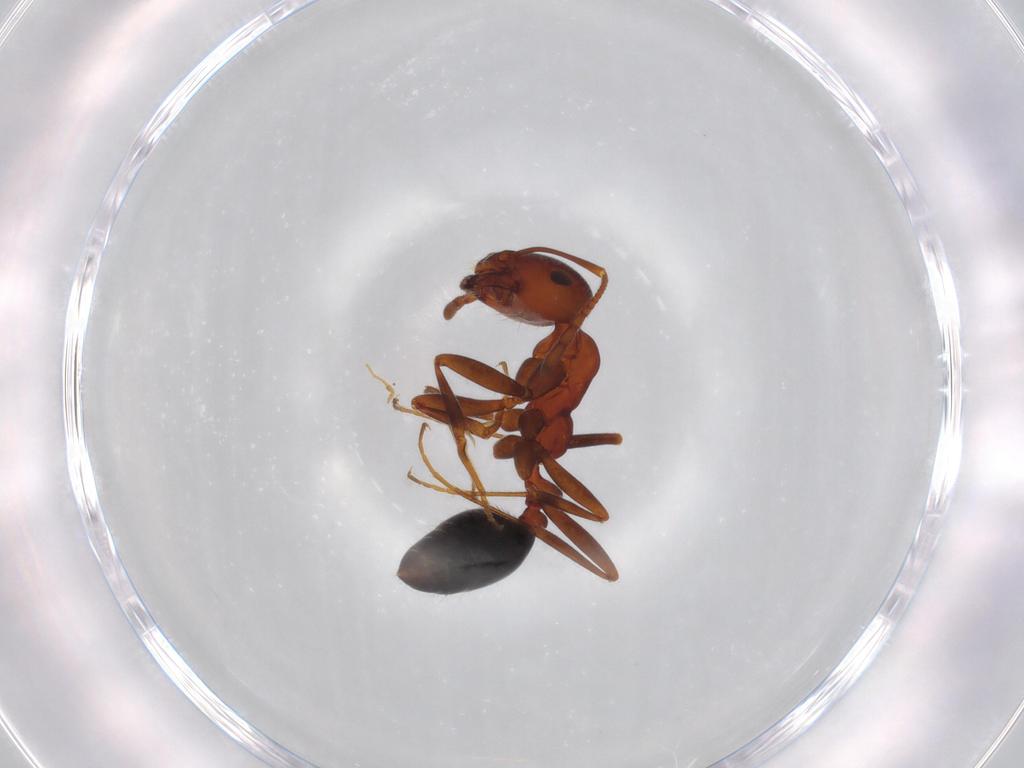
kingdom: Animalia
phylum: Arthropoda
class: Insecta
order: Hymenoptera
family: Formicidae
